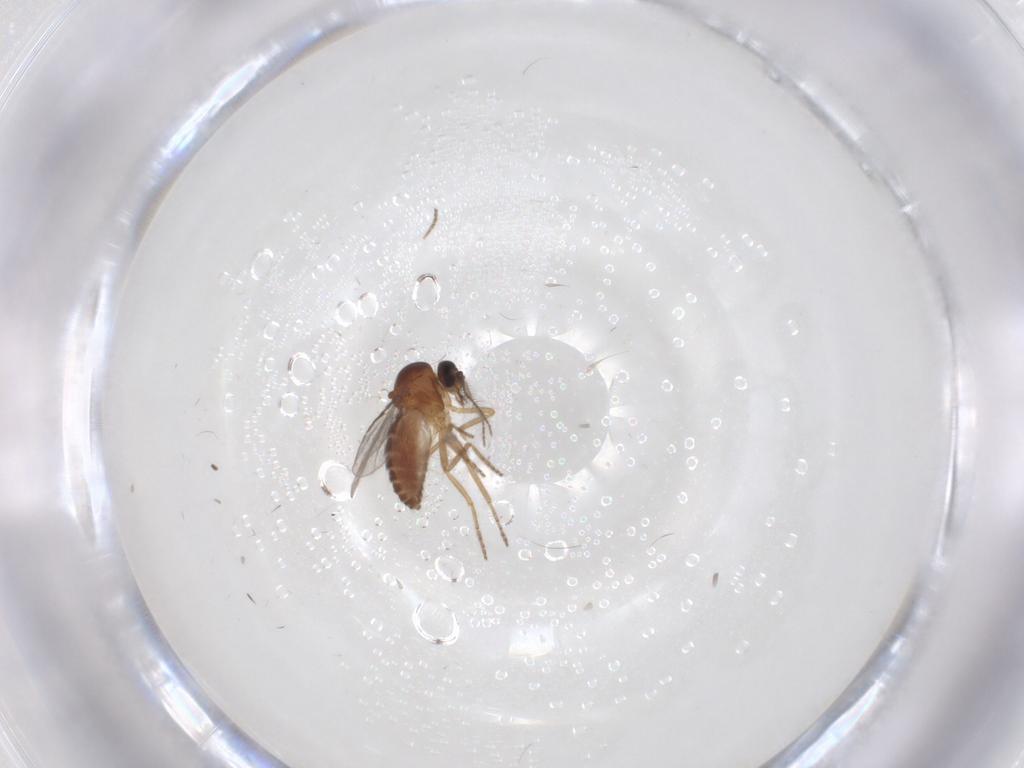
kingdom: Animalia
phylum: Arthropoda
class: Insecta
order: Diptera
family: Ceratopogonidae
